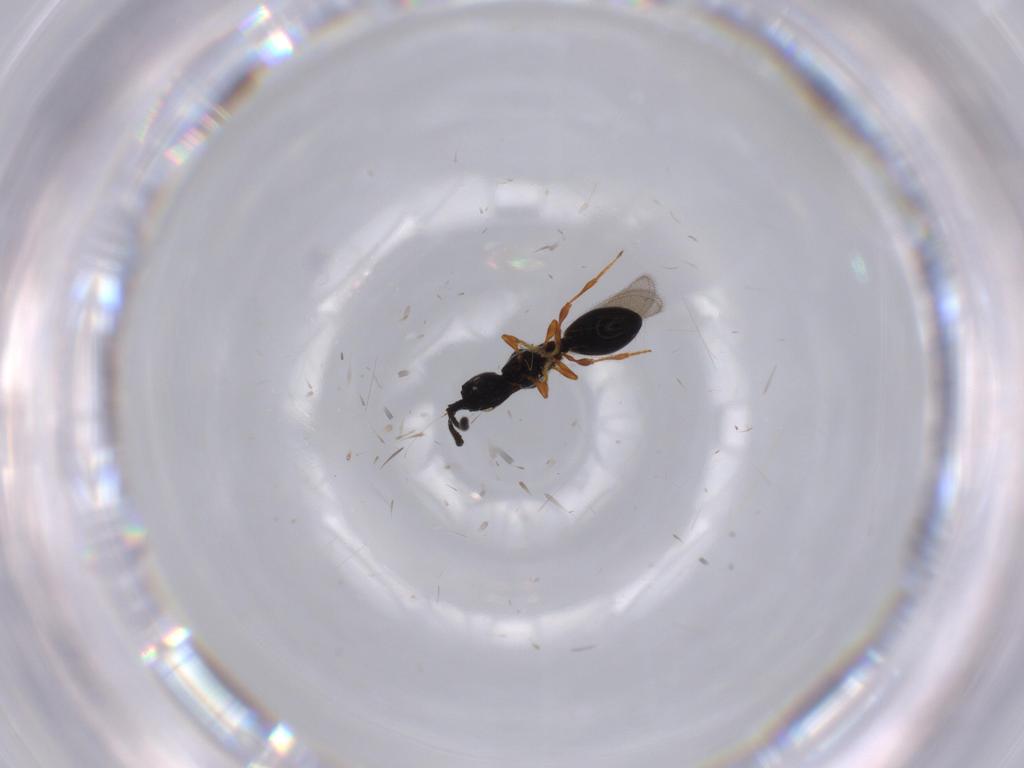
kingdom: Animalia
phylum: Arthropoda
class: Insecta
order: Hymenoptera
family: Diapriidae
